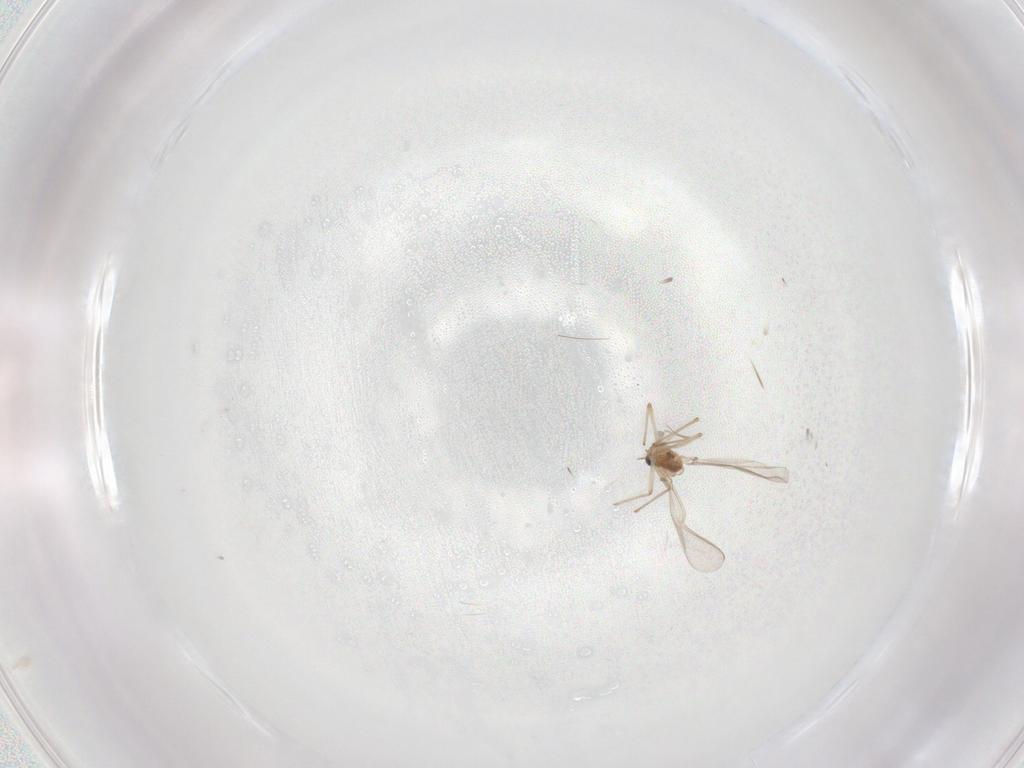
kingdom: Animalia
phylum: Arthropoda
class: Insecta
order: Diptera
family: Chironomidae
